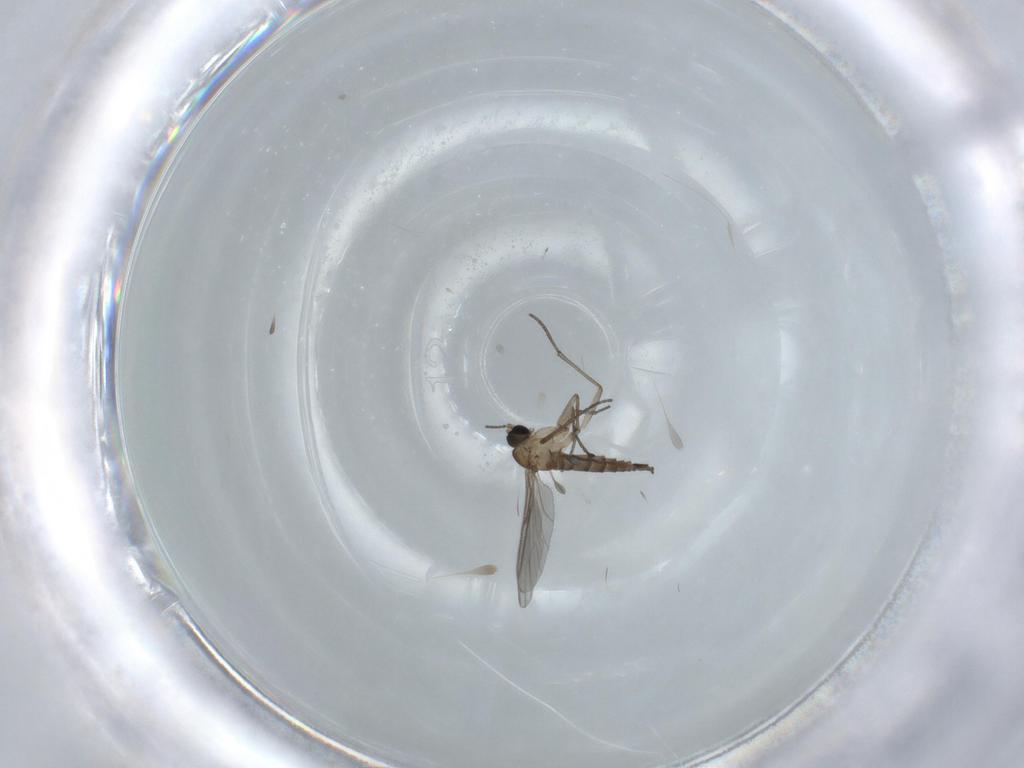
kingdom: Animalia
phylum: Arthropoda
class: Insecta
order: Diptera
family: Sciaridae
